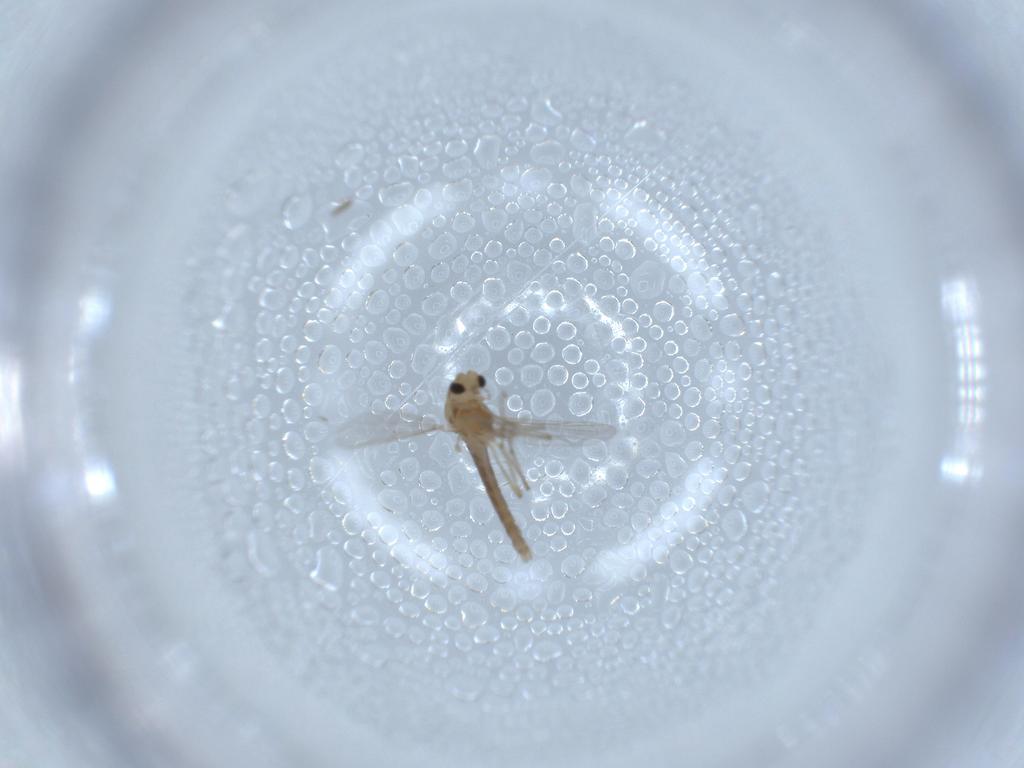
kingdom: Animalia
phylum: Arthropoda
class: Insecta
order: Diptera
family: Chironomidae
